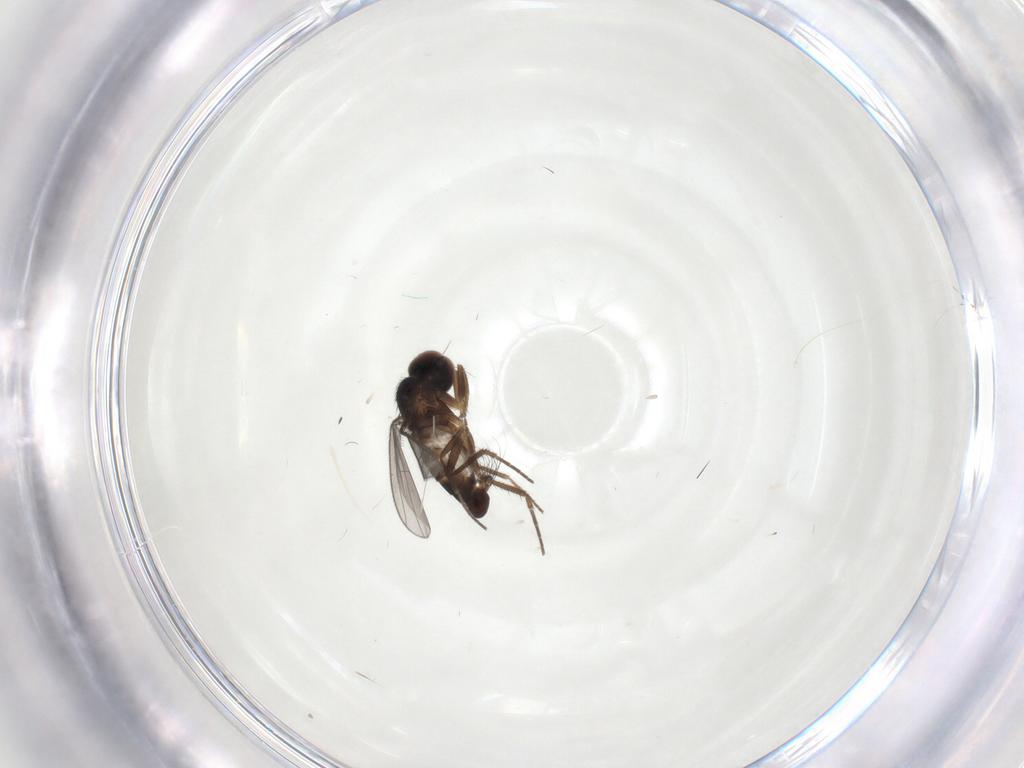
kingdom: Animalia
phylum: Arthropoda
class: Insecta
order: Diptera
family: Dolichopodidae
